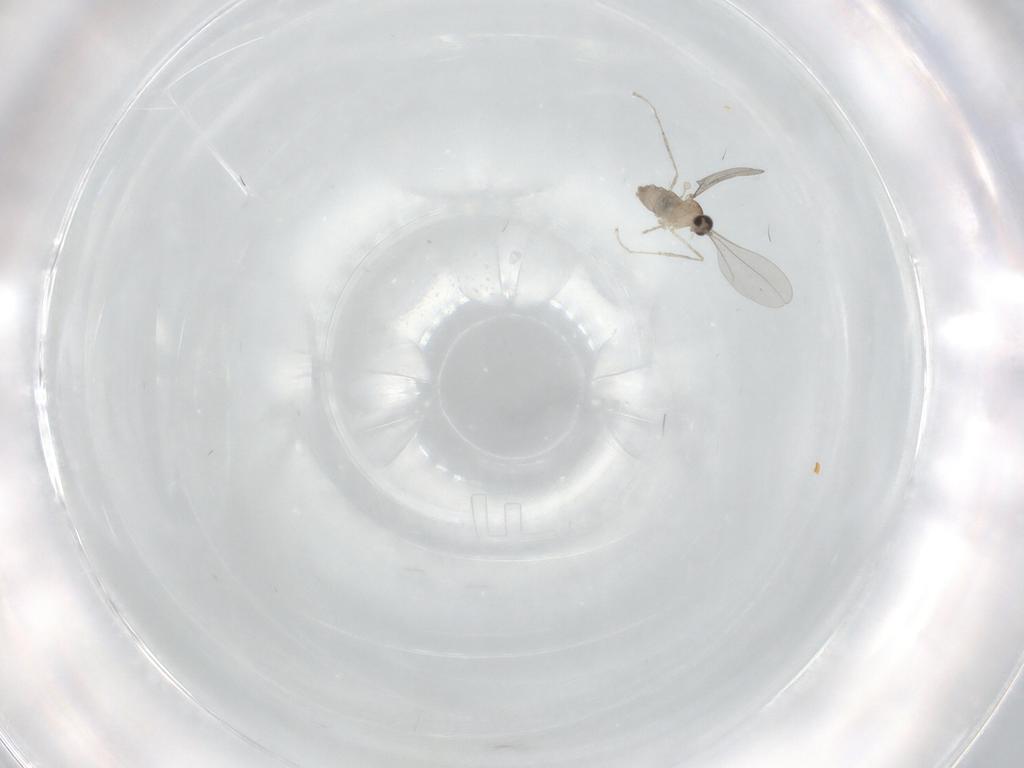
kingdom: Animalia
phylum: Arthropoda
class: Insecta
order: Diptera
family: Cecidomyiidae
